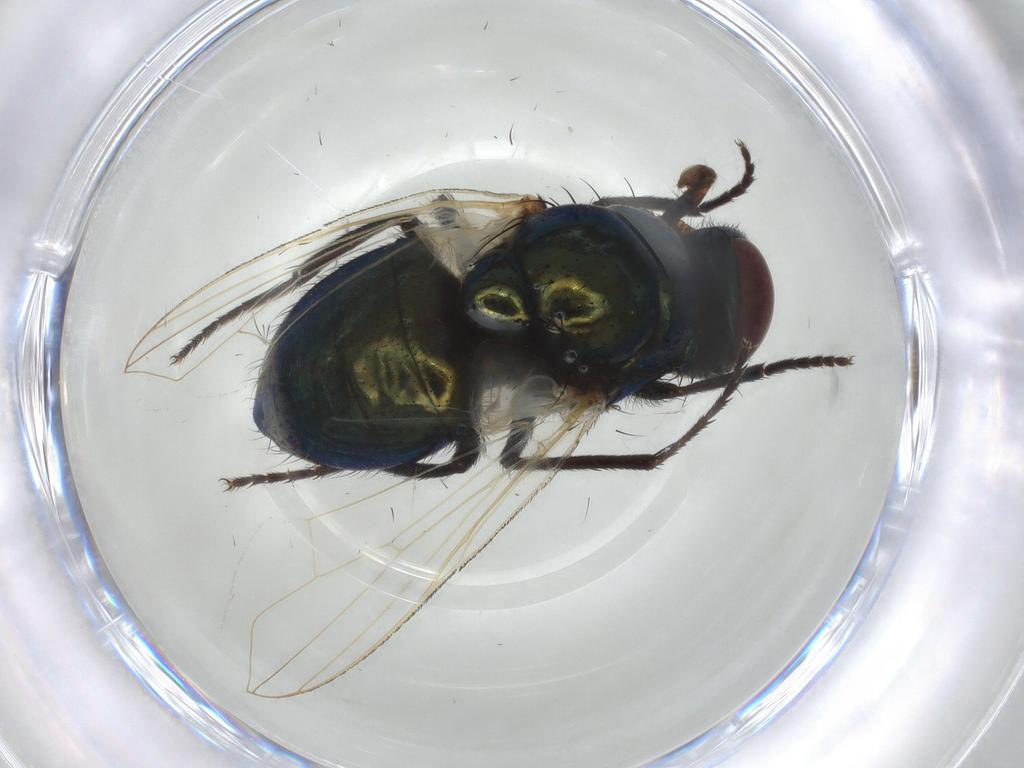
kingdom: Animalia
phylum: Arthropoda
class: Insecta
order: Diptera
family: Muscidae
